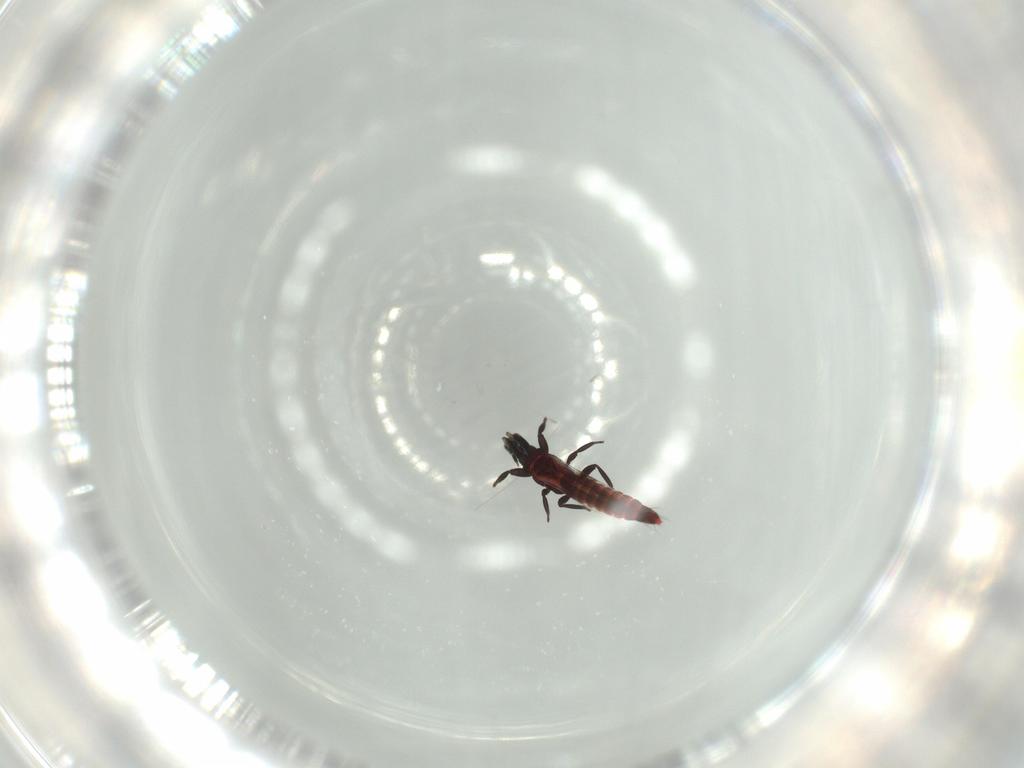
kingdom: Animalia
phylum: Arthropoda
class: Insecta
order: Thysanoptera
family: Aeolothripidae
